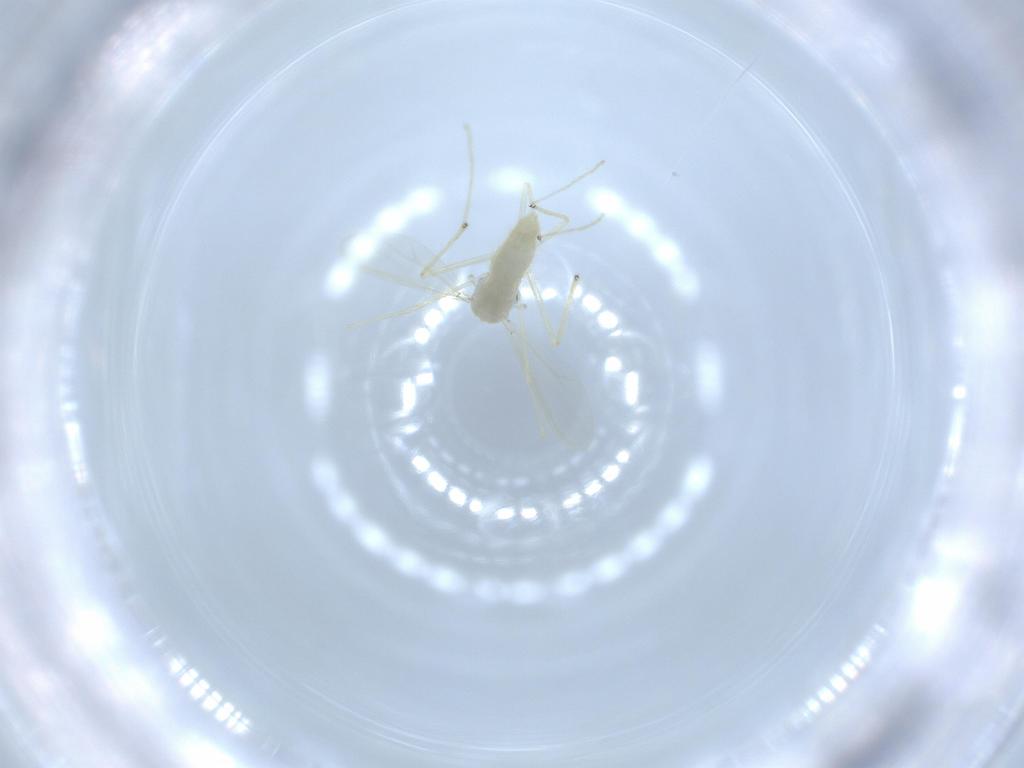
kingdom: Animalia
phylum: Arthropoda
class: Insecta
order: Diptera
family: Chironomidae
